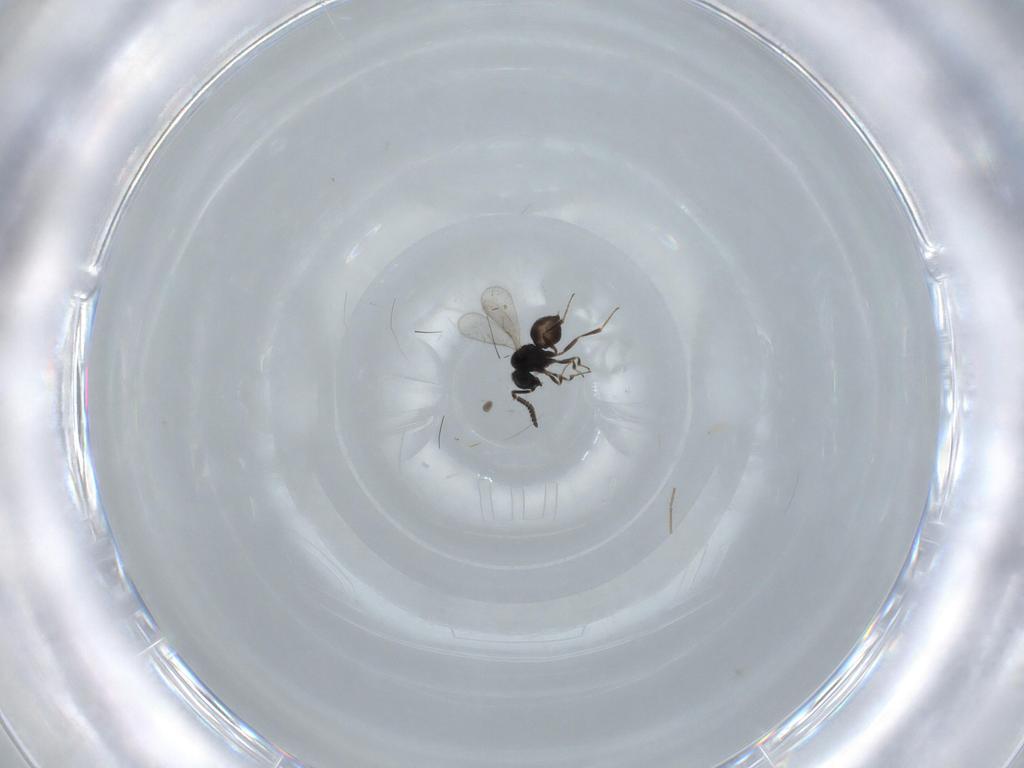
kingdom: Animalia
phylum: Arthropoda
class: Insecta
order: Hymenoptera
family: Scelionidae
